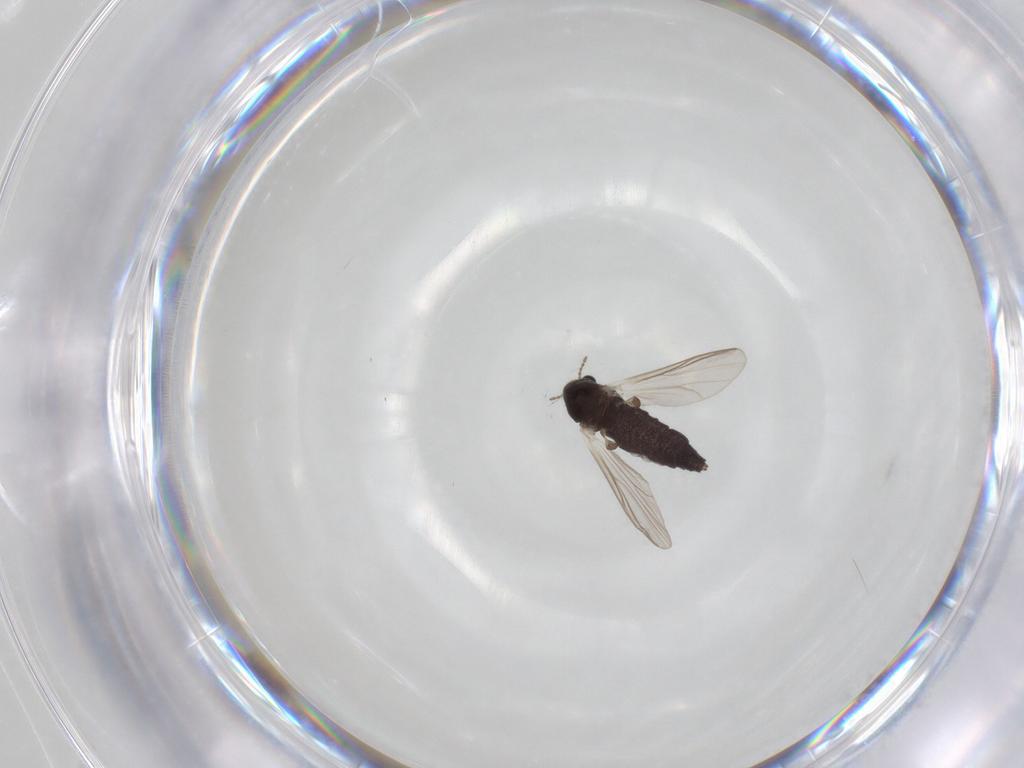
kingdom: Animalia
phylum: Arthropoda
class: Insecta
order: Diptera
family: Chironomidae
